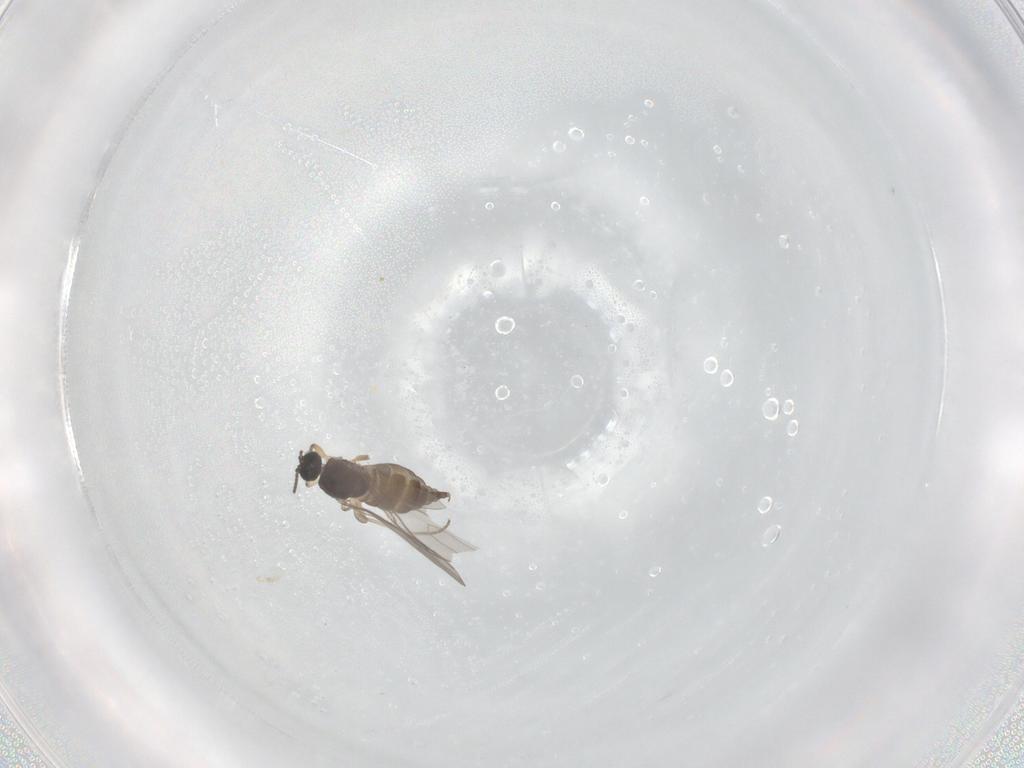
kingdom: Animalia
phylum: Arthropoda
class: Insecta
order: Diptera
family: Sciaridae
